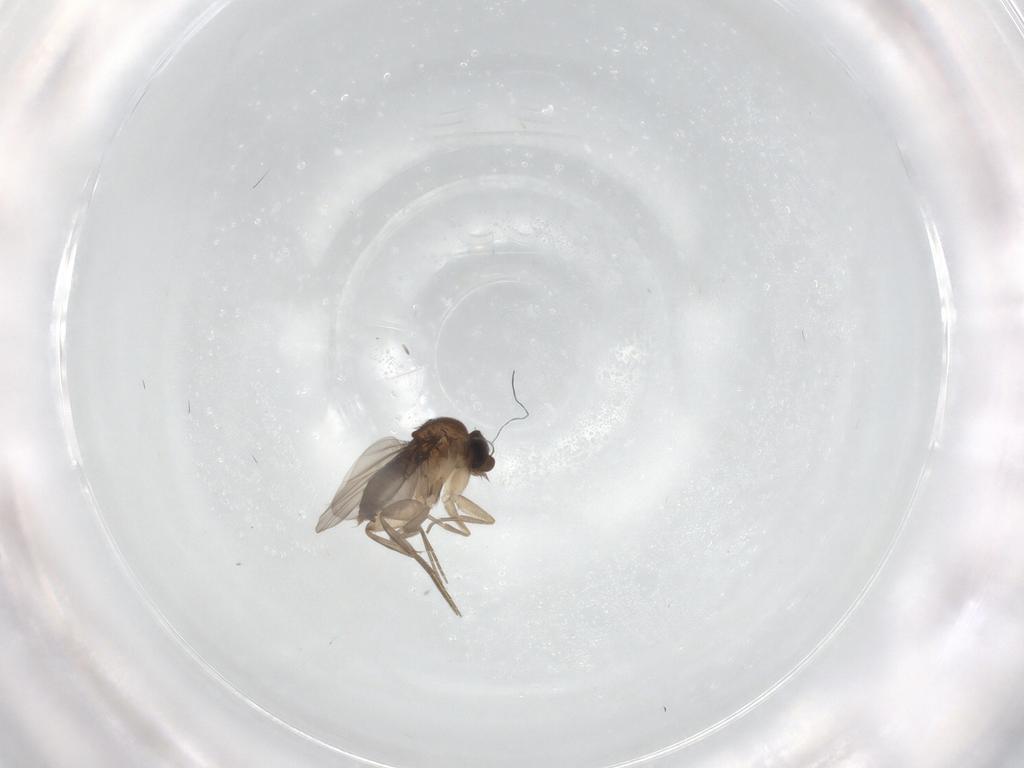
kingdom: Animalia
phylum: Arthropoda
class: Insecta
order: Diptera
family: Phoridae
